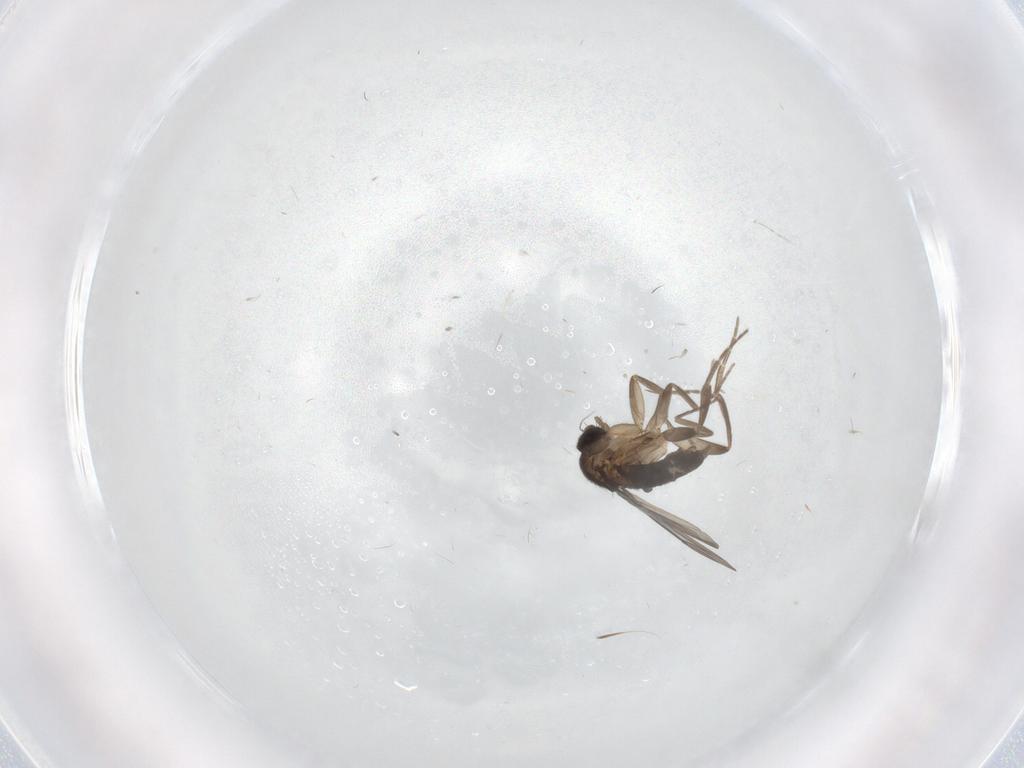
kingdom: Animalia
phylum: Arthropoda
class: Insecta
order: Diptera
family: Phoridae
